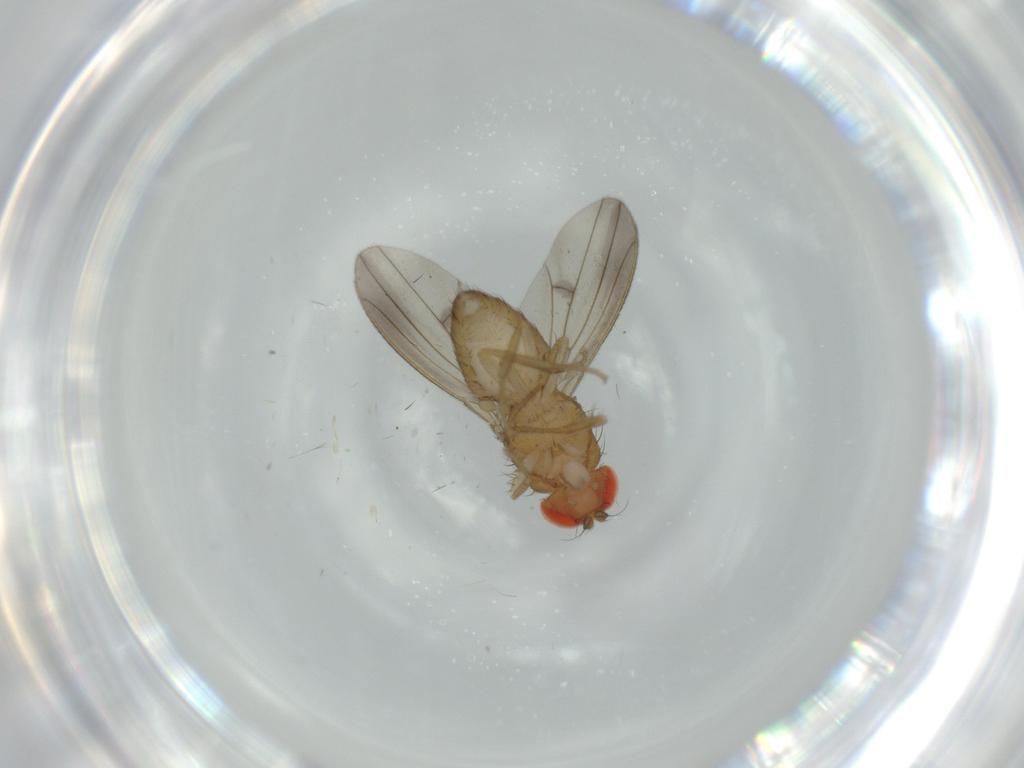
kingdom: Animalia
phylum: Arthropoda
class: Insecta
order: Diptera
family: Drosophilidae
